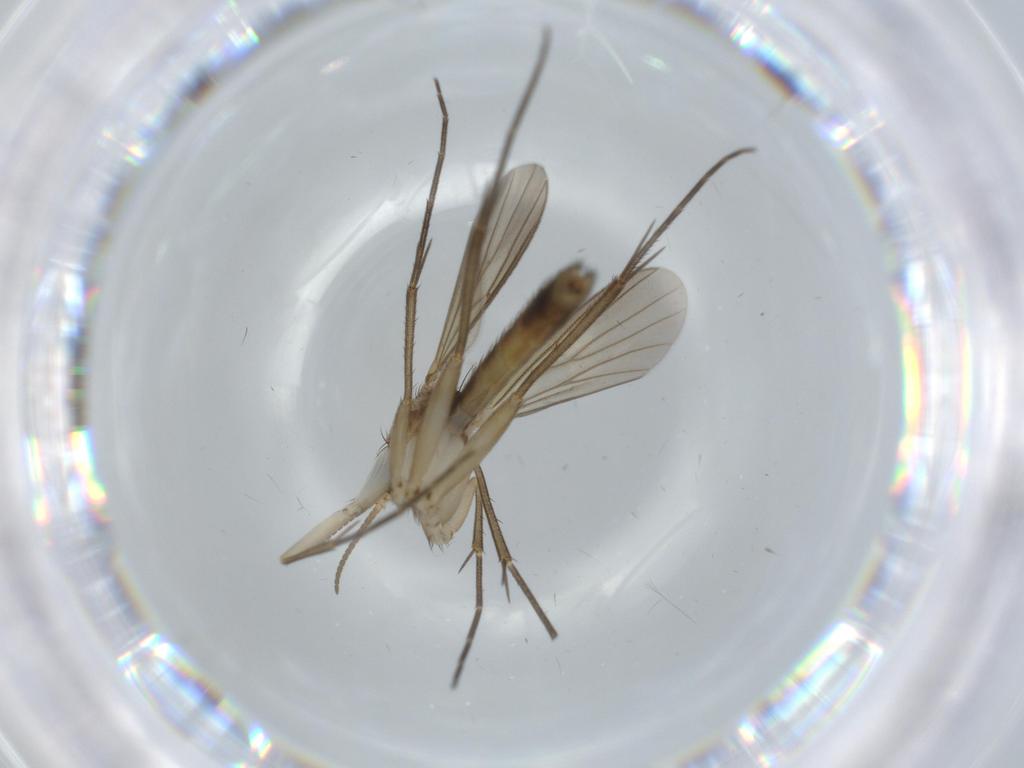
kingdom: Animalia
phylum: Arthropoda
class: Insecta
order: Diptera
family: Mycetophilidae
